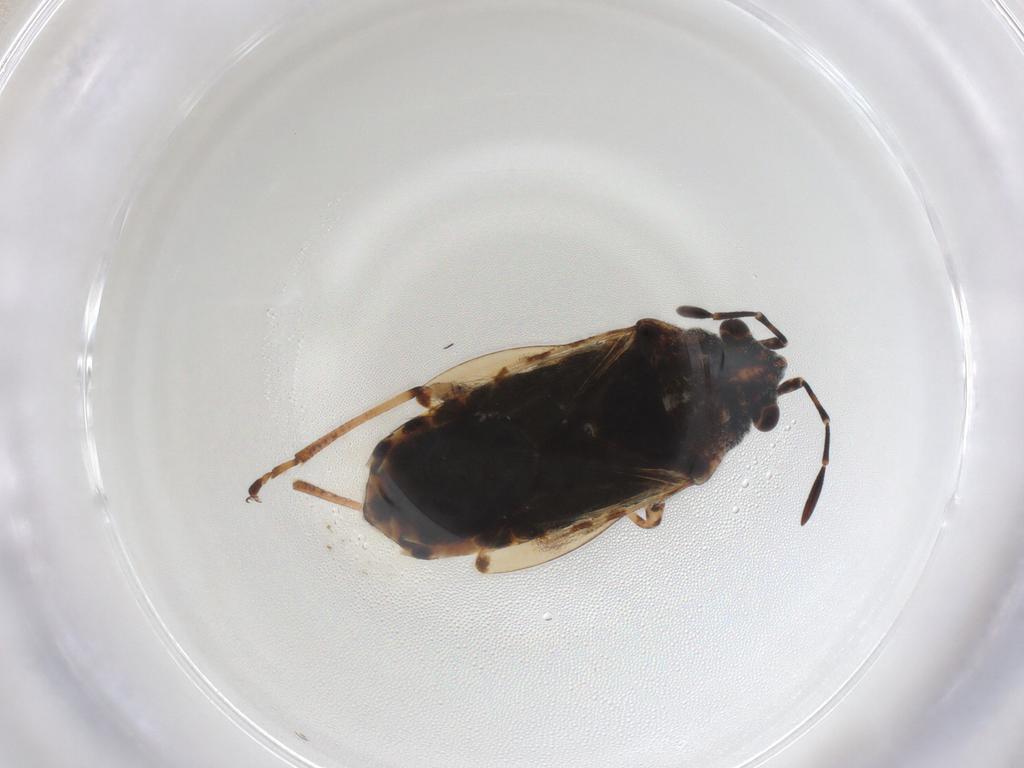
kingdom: Animalia
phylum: Arthropoda
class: Insecta
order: Hemiptera
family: Lygaeidae
